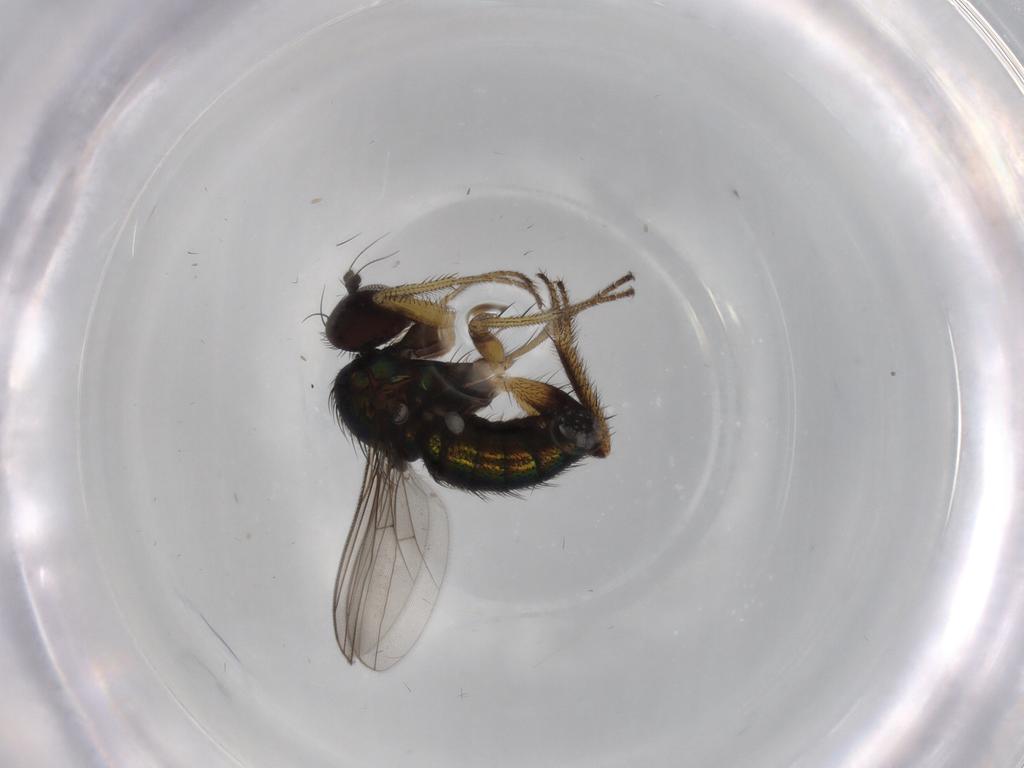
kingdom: Animalia
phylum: Arthropoda
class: Insecta
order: Diptera
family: Dolichopodidae
